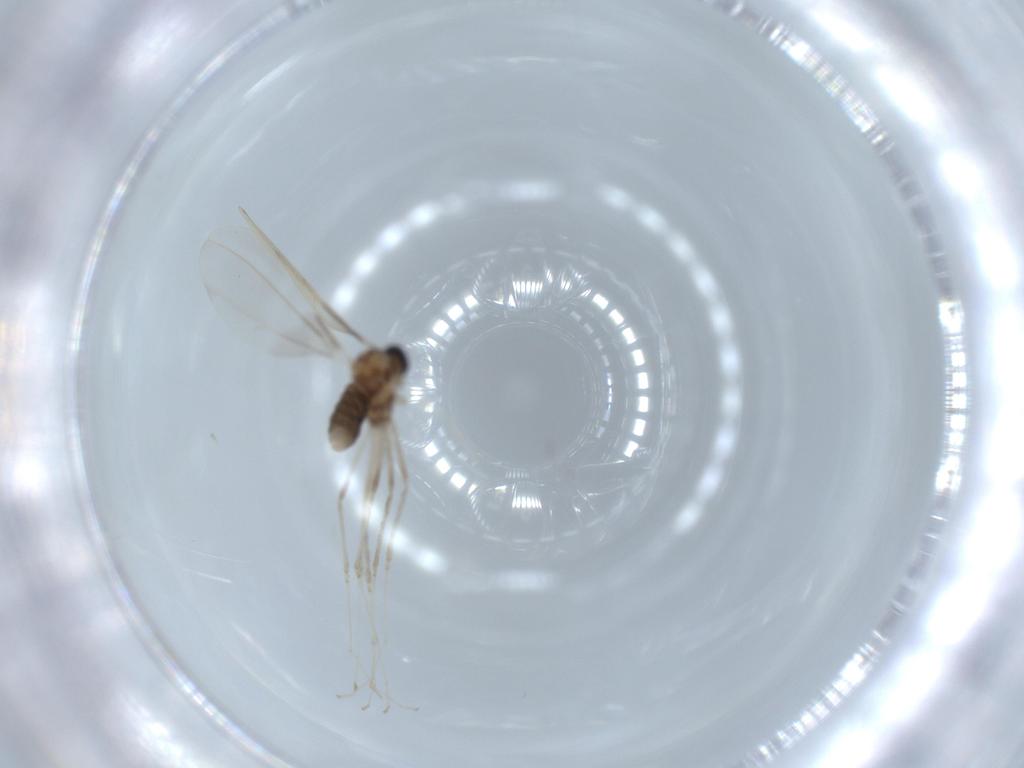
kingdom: Animalia
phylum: Arthropoda
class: Insecta
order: Diptera
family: Cecidomyiidae
